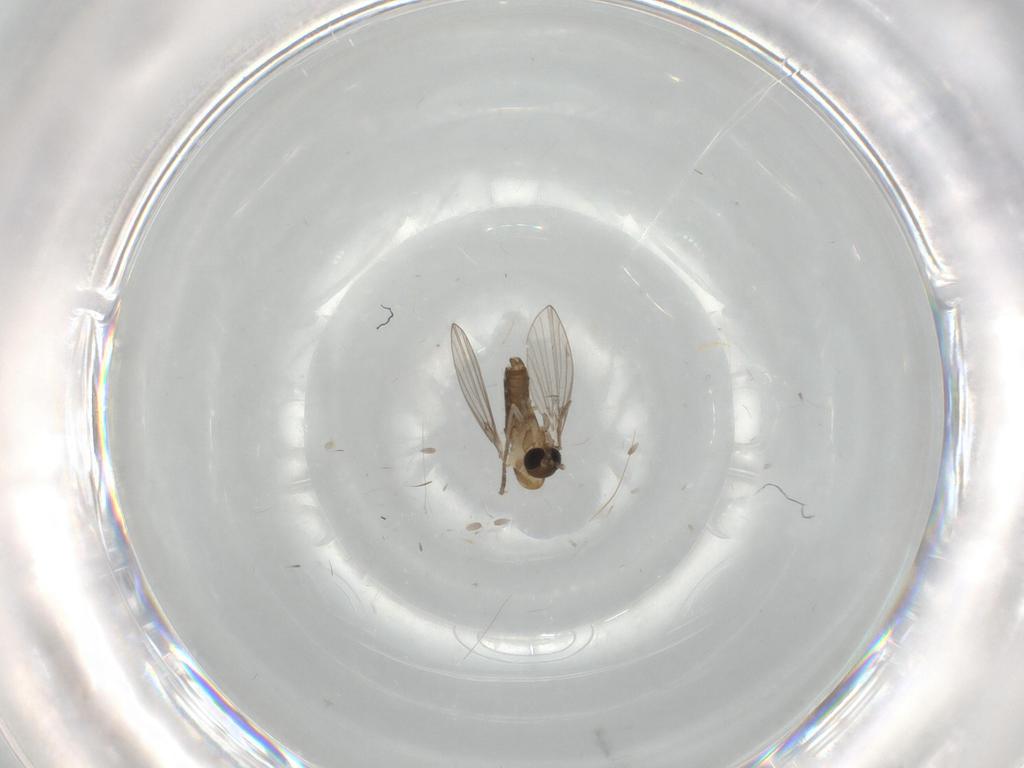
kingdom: Animalia
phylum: Arthropoda
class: Insecta
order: Diptera
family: Psychodidae
